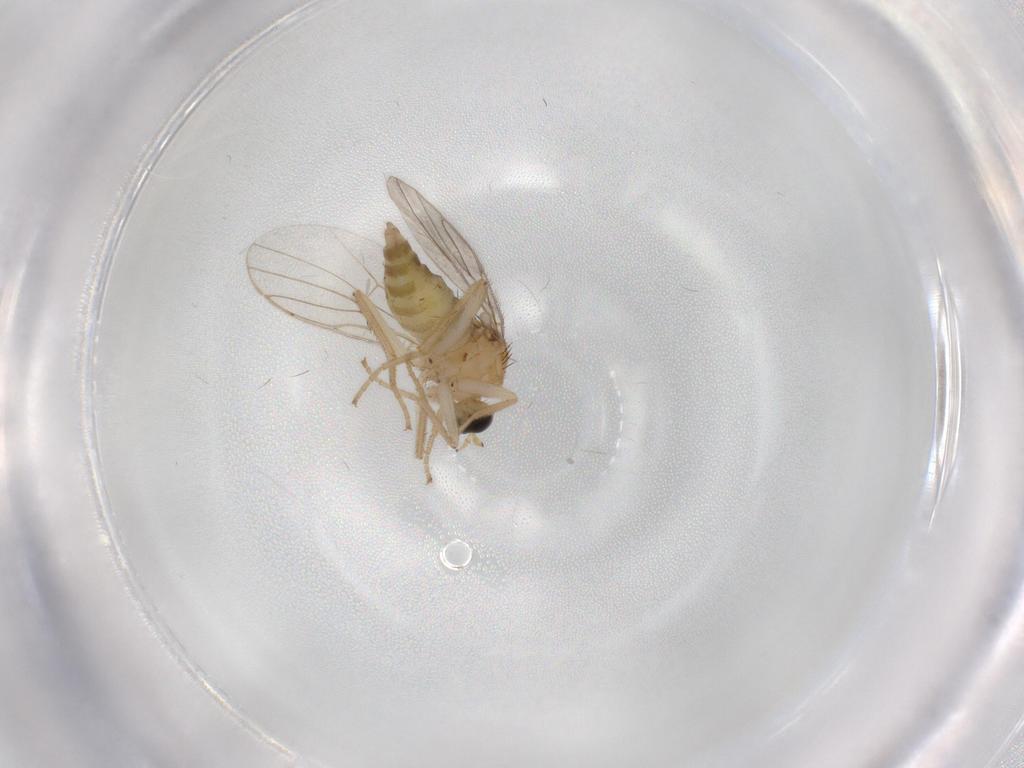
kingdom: Animalia
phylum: Arthropoda
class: Insecta
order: Diptera
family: Hybotidae
